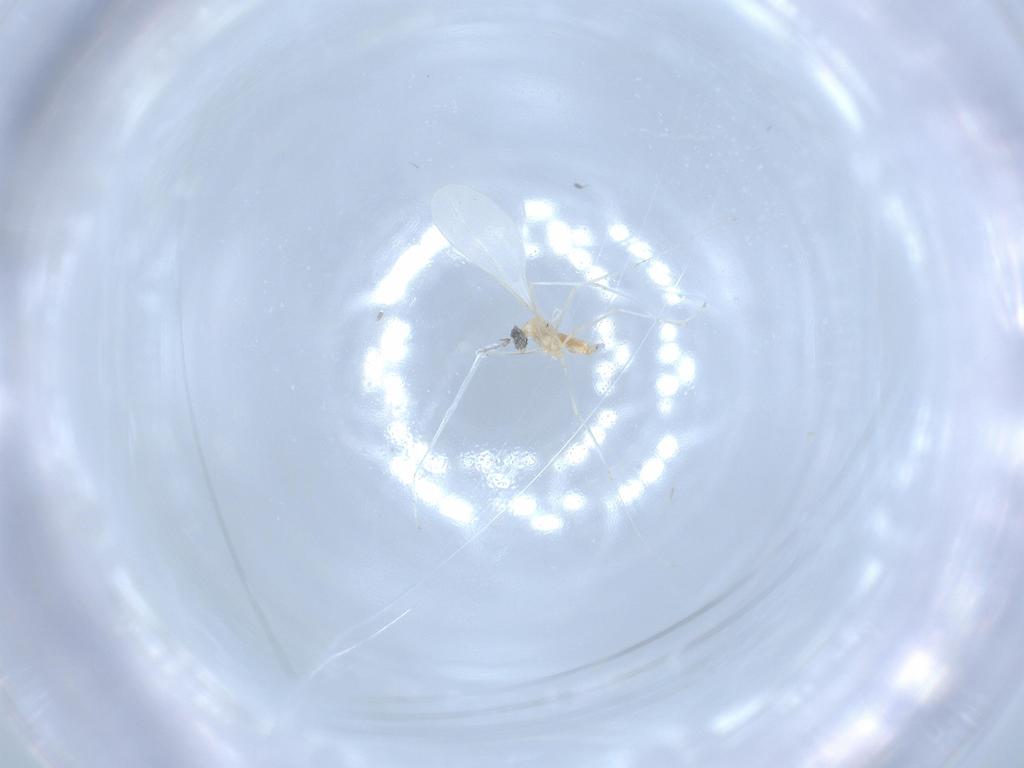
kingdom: Animalia
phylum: Arthropoda
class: Insecta
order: Diptera
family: Cecidomyiidae
